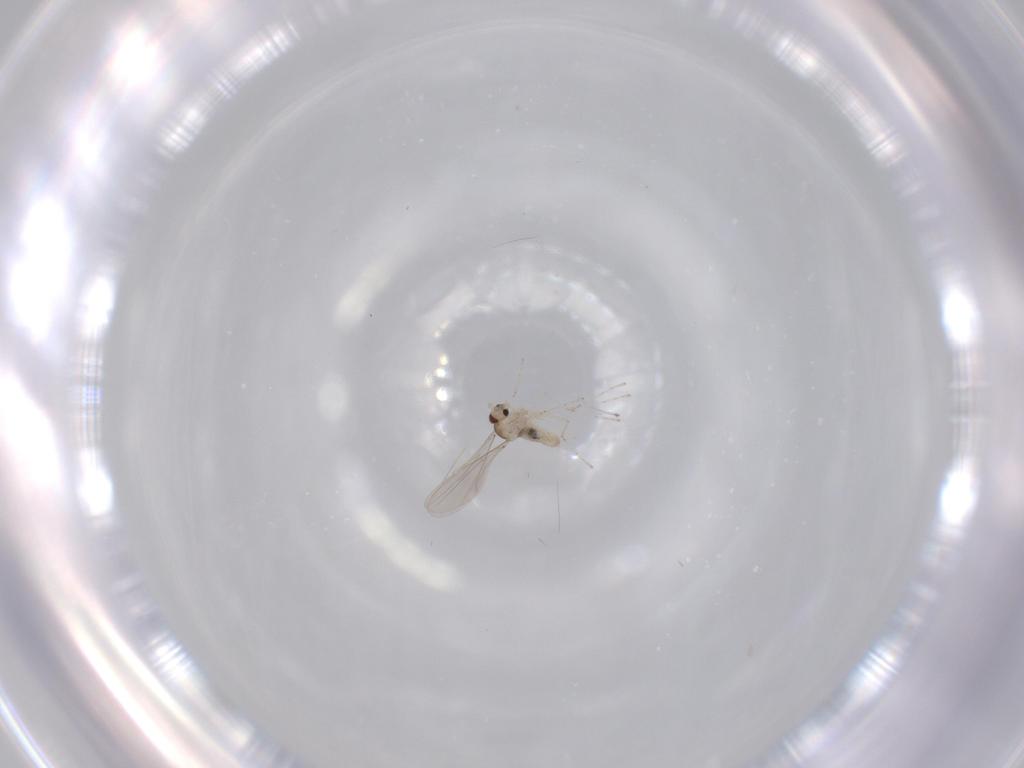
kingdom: Animalia
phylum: Arthropoda
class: Insecta
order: Diptera
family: Cecidomyiidae
